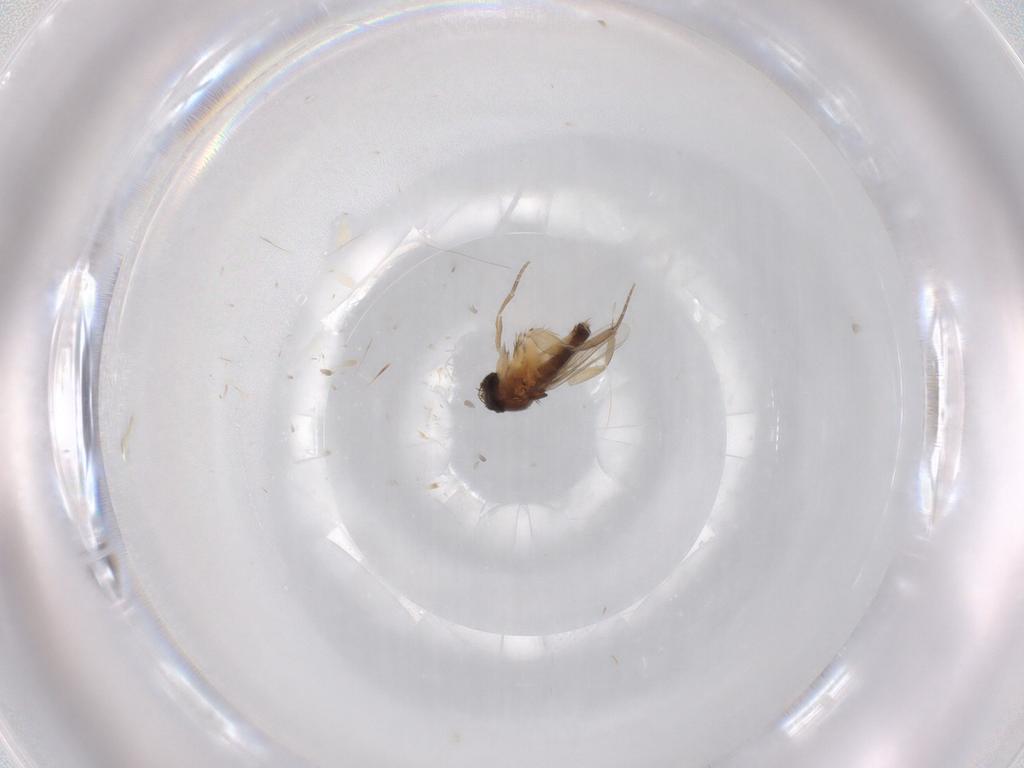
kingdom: Animalia
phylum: Arthropoda
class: Insecta
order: Diptera
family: Phoridae
